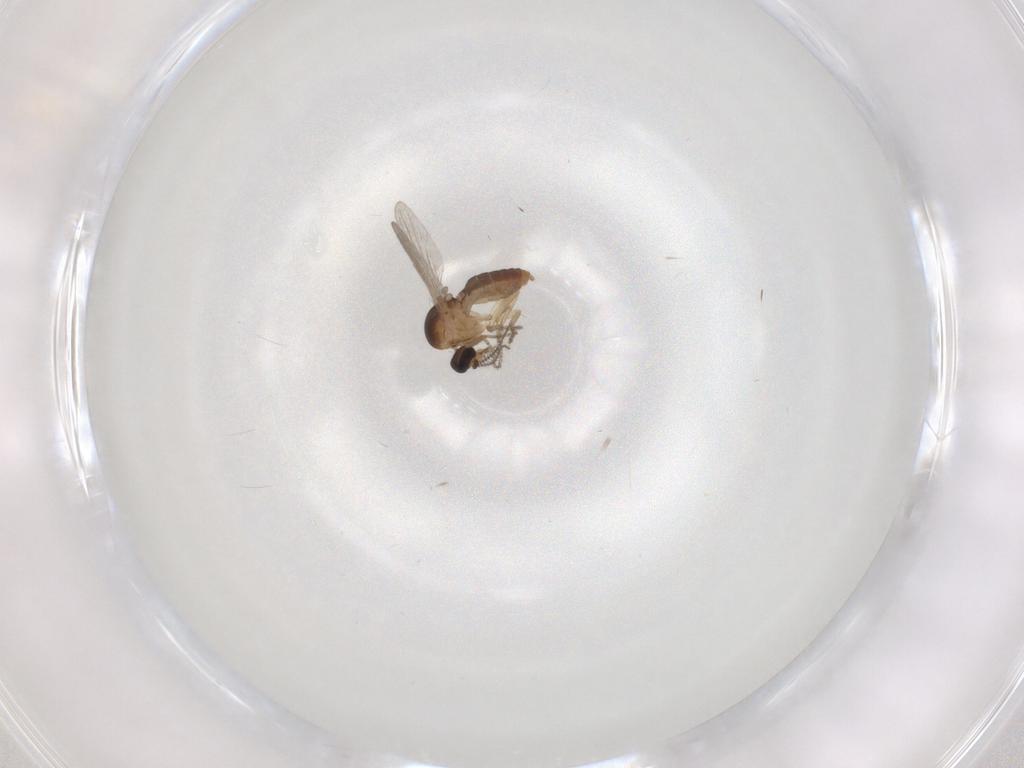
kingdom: Animalia
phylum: Arthropoda
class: Insecta
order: Diptera
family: Ceratopogonidae
